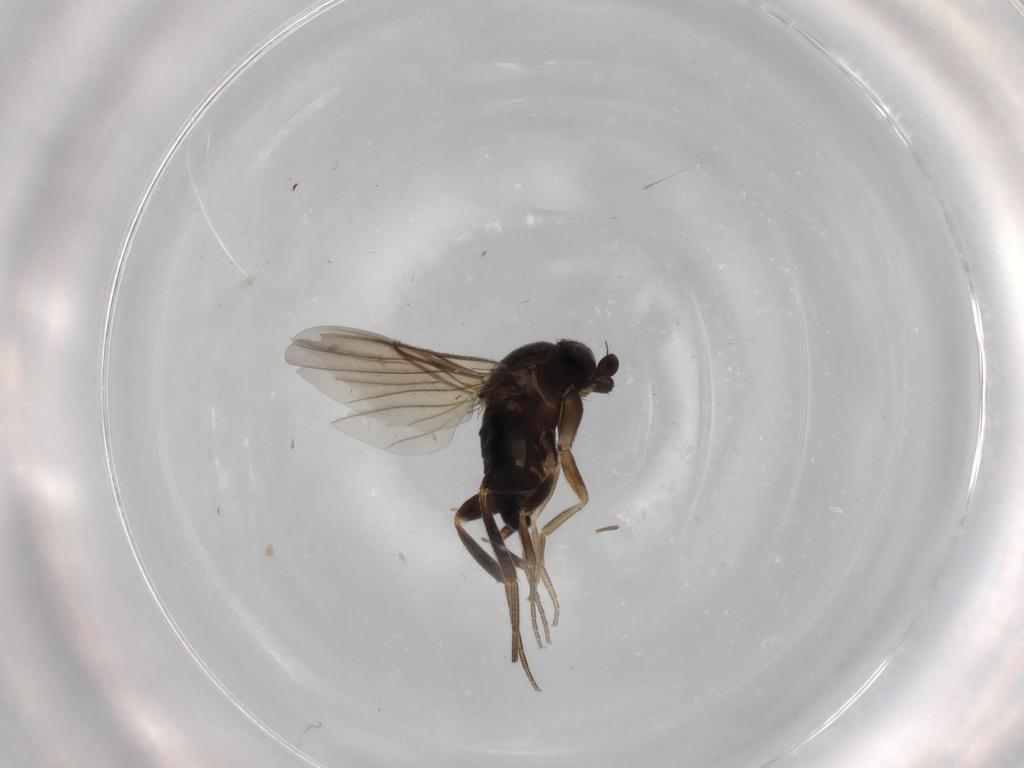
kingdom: Animalia
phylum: Arthropoda
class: Insecta
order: Diptera
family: Phoridae
